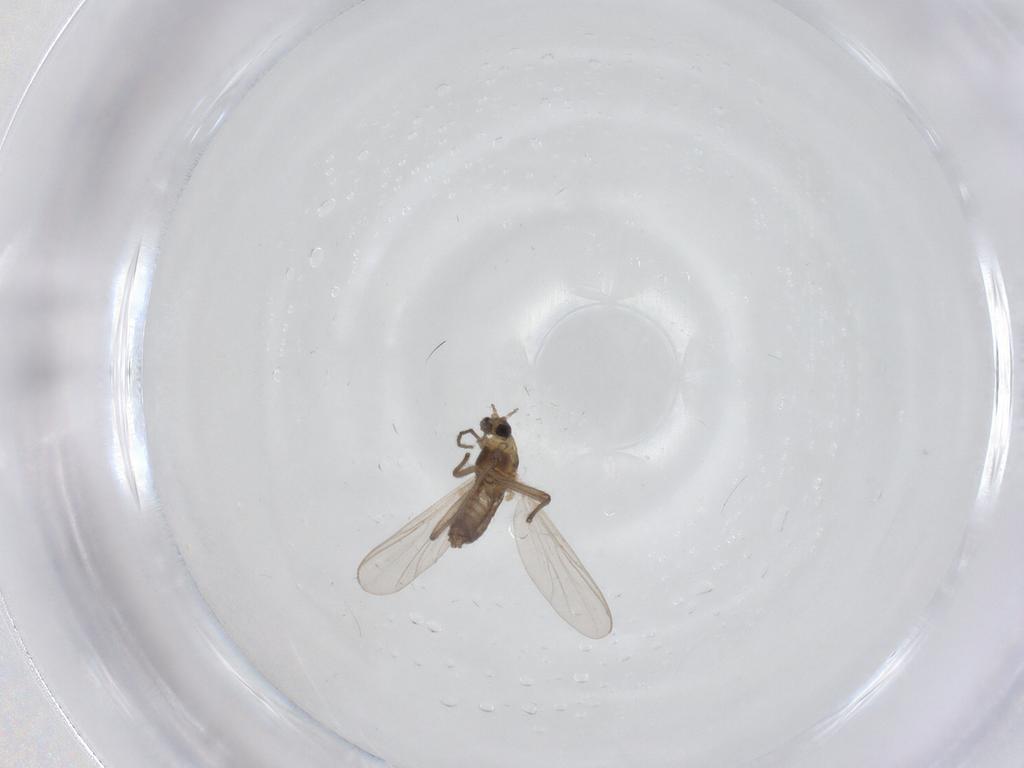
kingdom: Animalia
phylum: Arthropoda
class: Insecta
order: Diptera
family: Chironomidae
